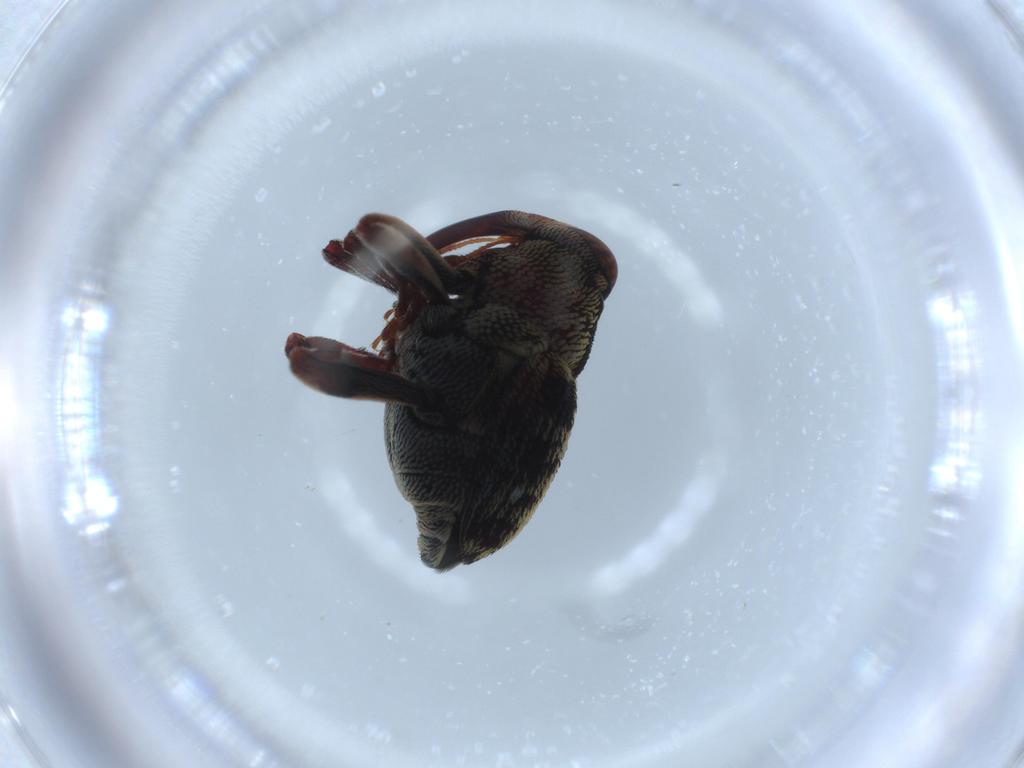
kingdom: Animalia
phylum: Arthropoda
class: Insecta
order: Coleoptera
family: Curculionidae
